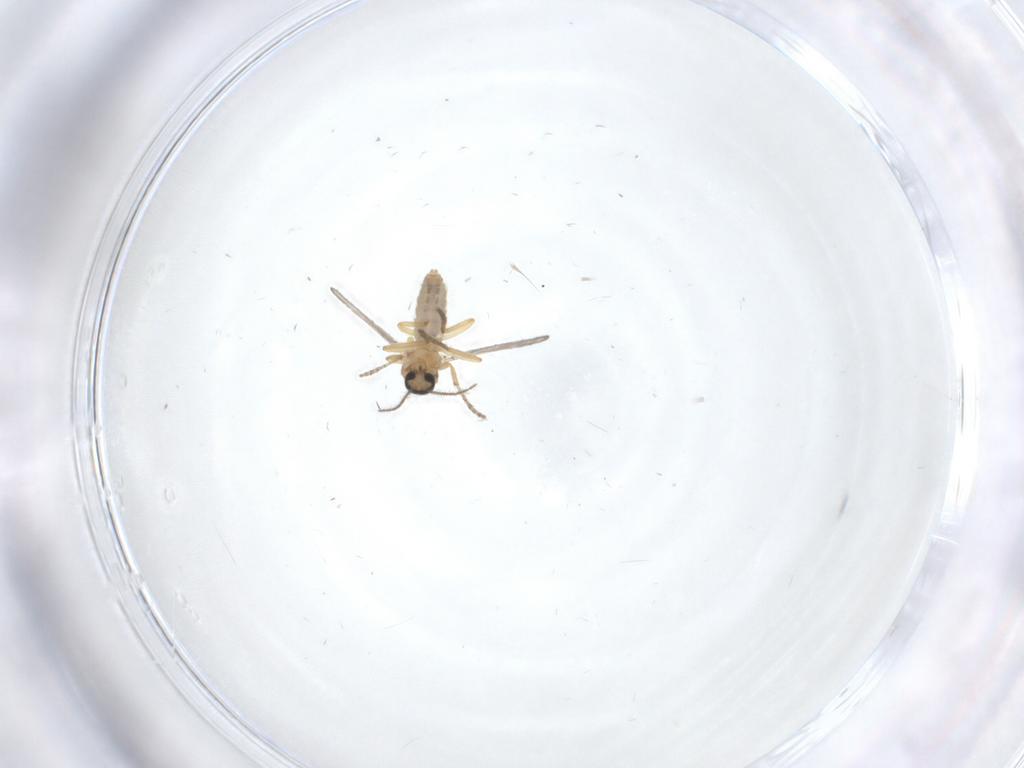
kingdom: Animalia
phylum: Arthropoda
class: Insecta
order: Diptera
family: Ceratopogonidae
